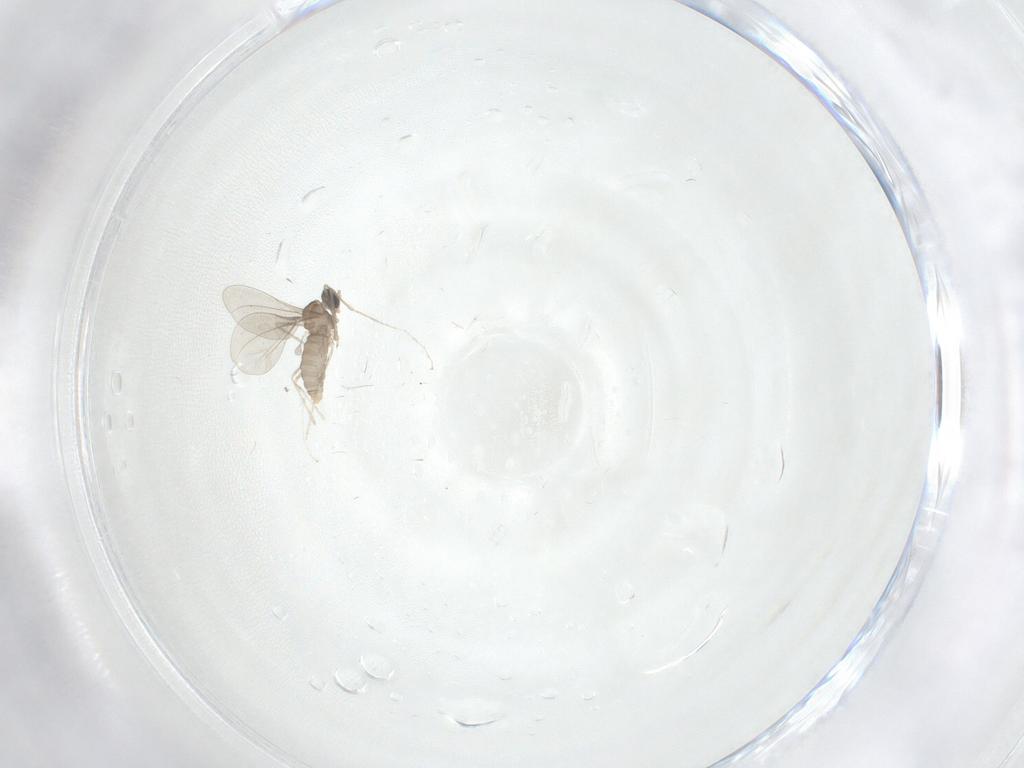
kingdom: Animalia
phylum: Arthropoda
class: Insecta
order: Diptera
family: Cecidomyiidae
